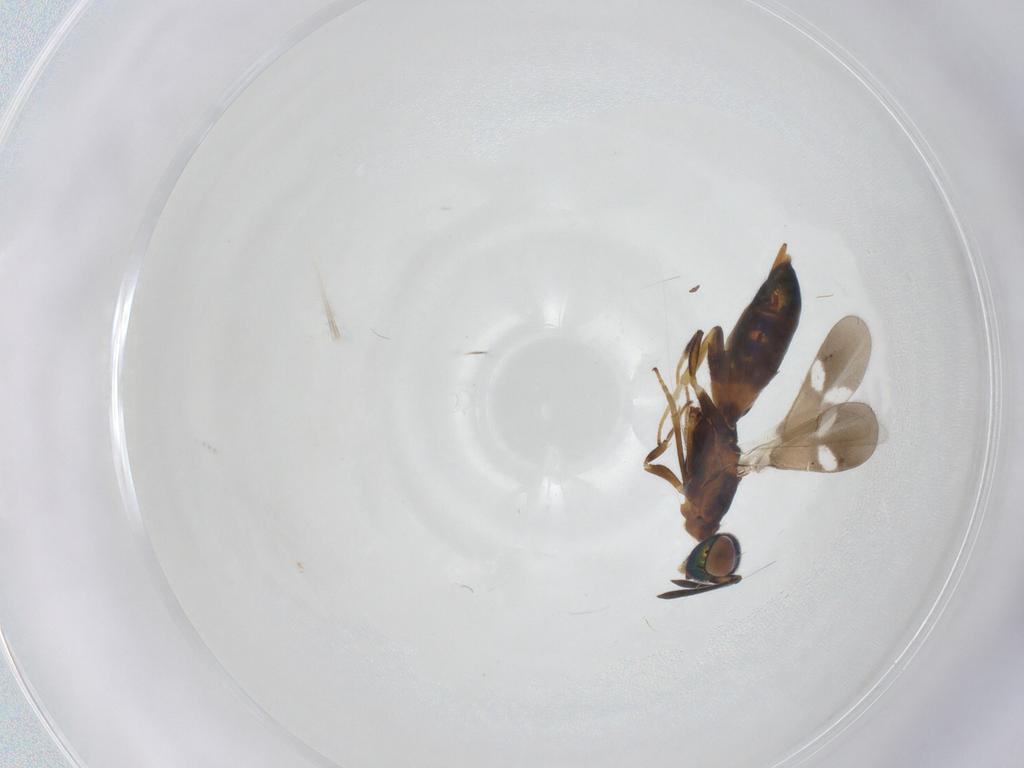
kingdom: Animalia
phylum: Arthropoda
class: Insecta
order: Hymenoptera
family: Eupelmidae
